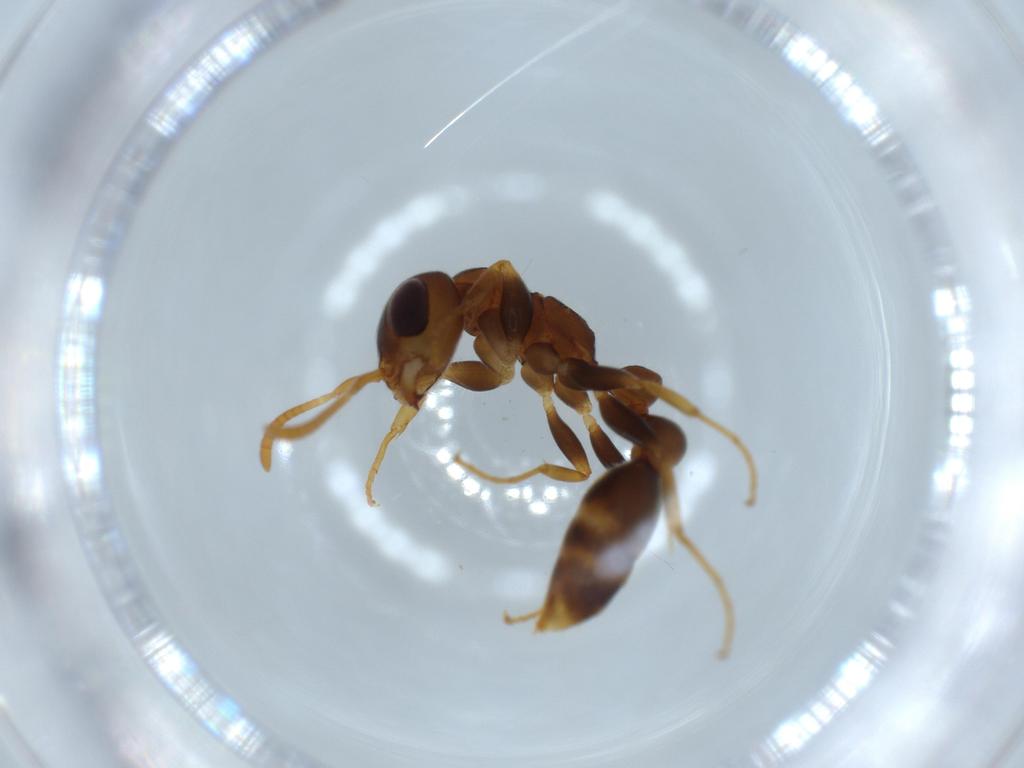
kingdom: Animalia
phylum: Arthropoda
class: Insecta
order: Hymenoptera
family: Formicidae
